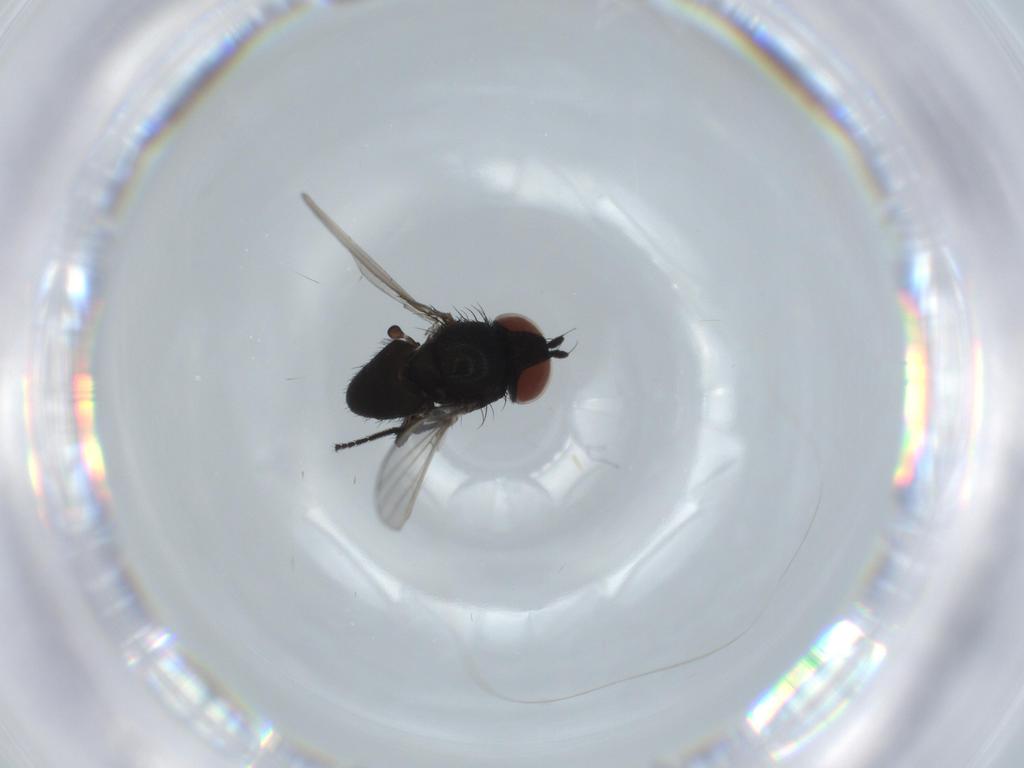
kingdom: Animalia
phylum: Arthropoda
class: Insecta
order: Diptera
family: Milichiidae
